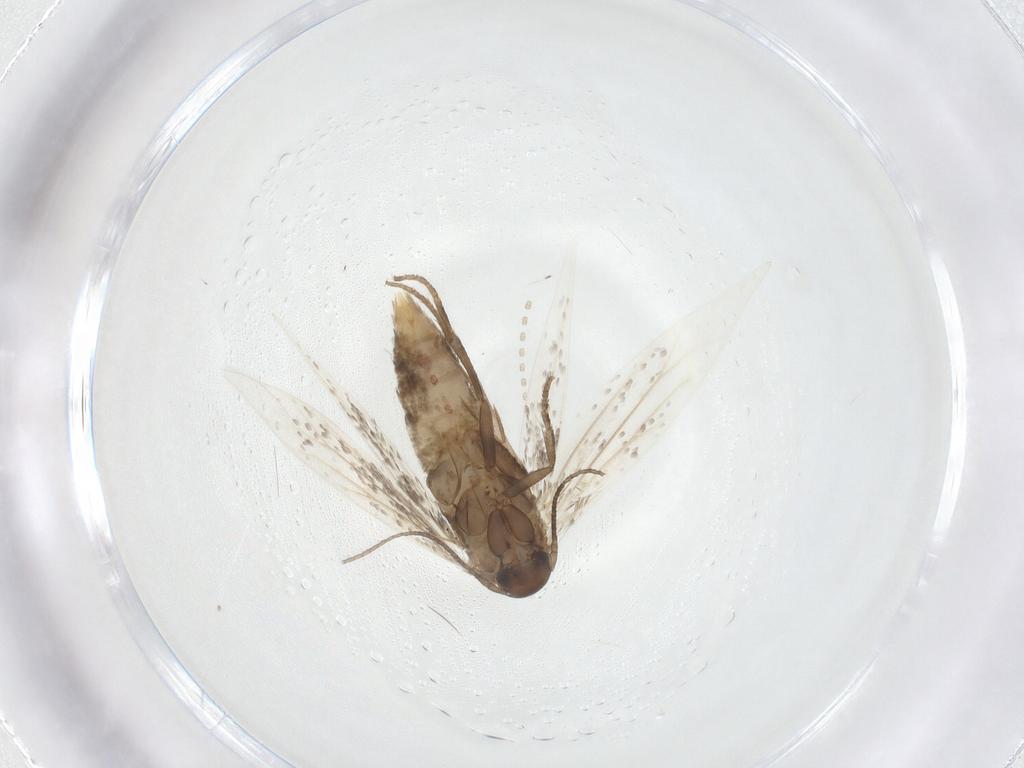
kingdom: Animalia
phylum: Arthropoda
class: Insecta
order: Lepidoptera
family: Elachistidae
